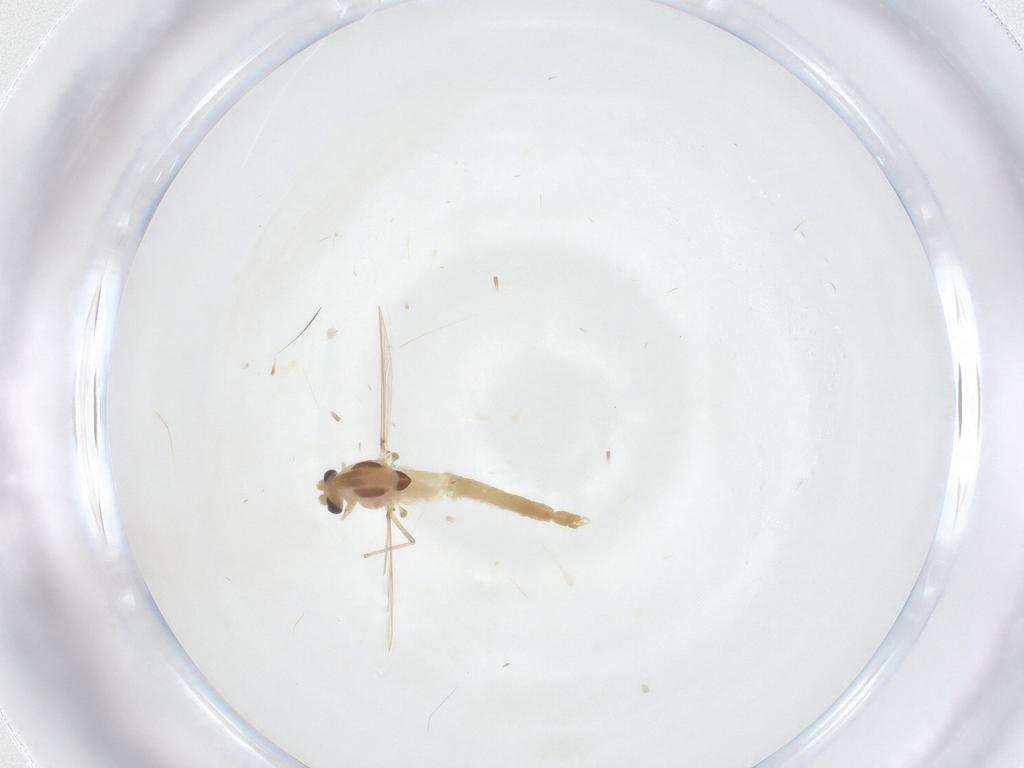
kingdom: Animalia
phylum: Arthropoda
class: Insecta
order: Diptera
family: Chironomidae
